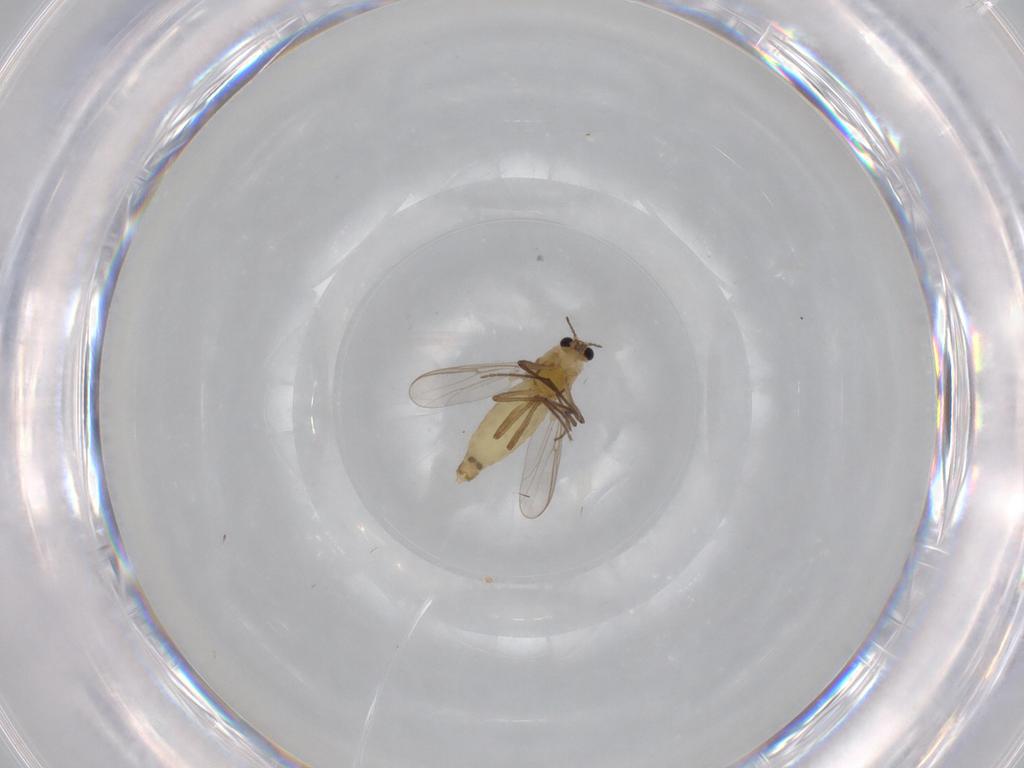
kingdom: Animalia
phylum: Arthropoda
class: Insecta
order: Diptera
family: Chironomidae
